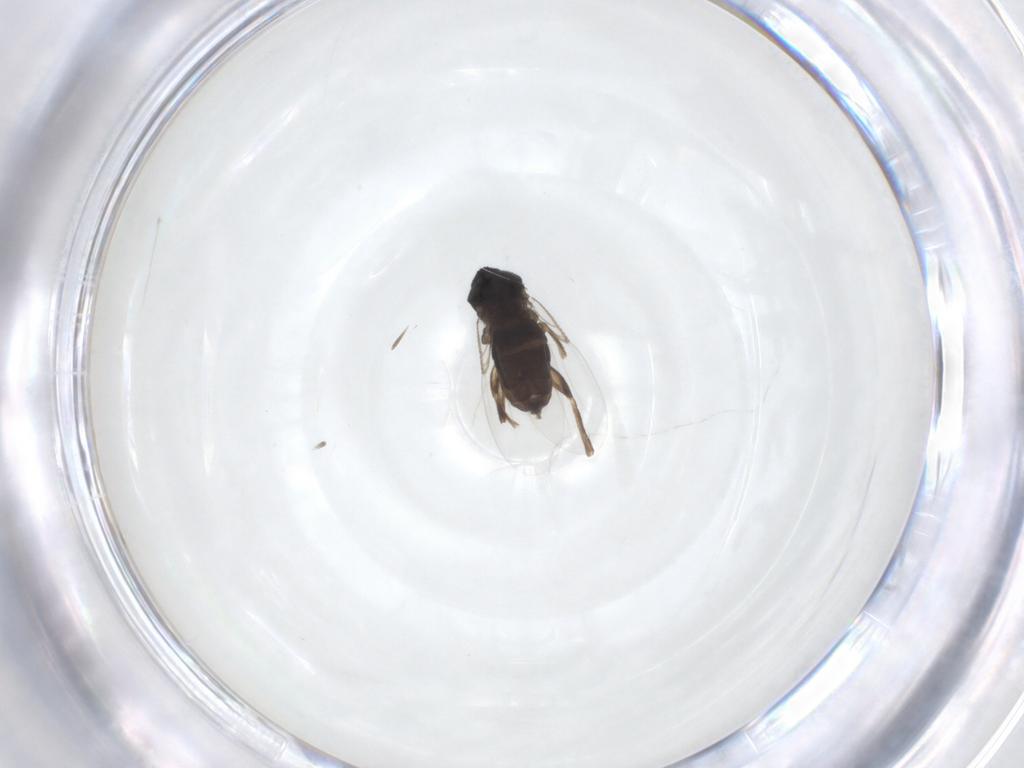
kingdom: Animalia
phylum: Arthropoda
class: Insecta
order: Diptera
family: Phoridae
